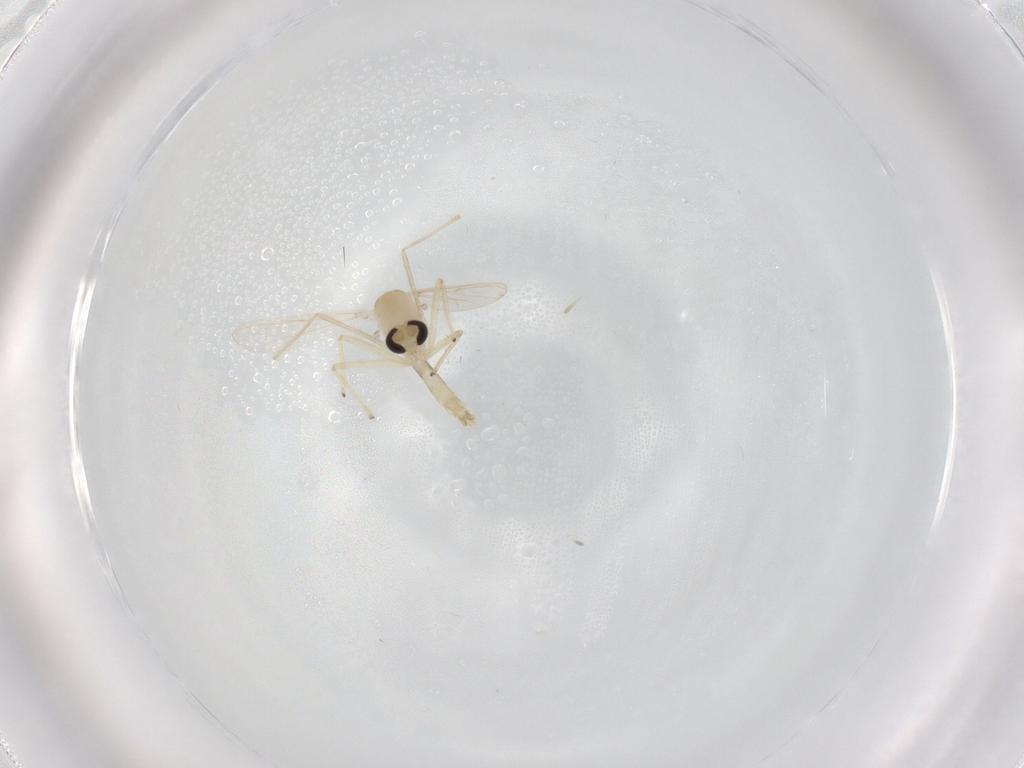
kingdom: Animalia
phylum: Arthropoda
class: Insecta
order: Diptera
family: Chironomidae
